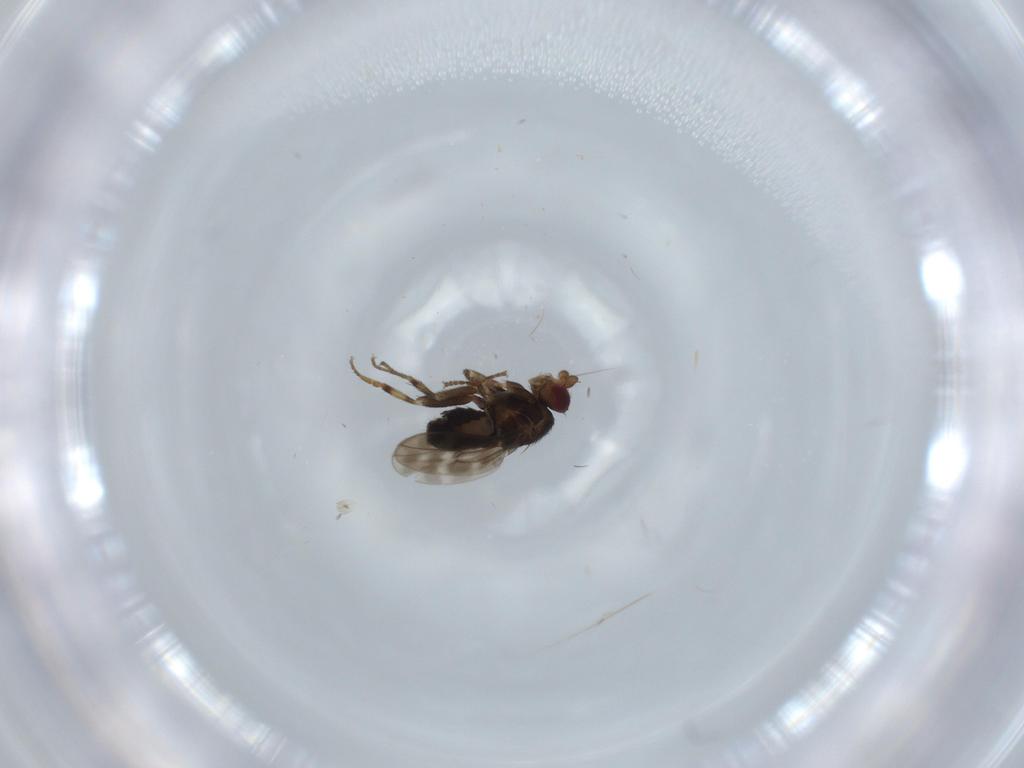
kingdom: Animalia
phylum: Arthropoda
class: Insecta
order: Diptera
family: Sphaeroceridae
